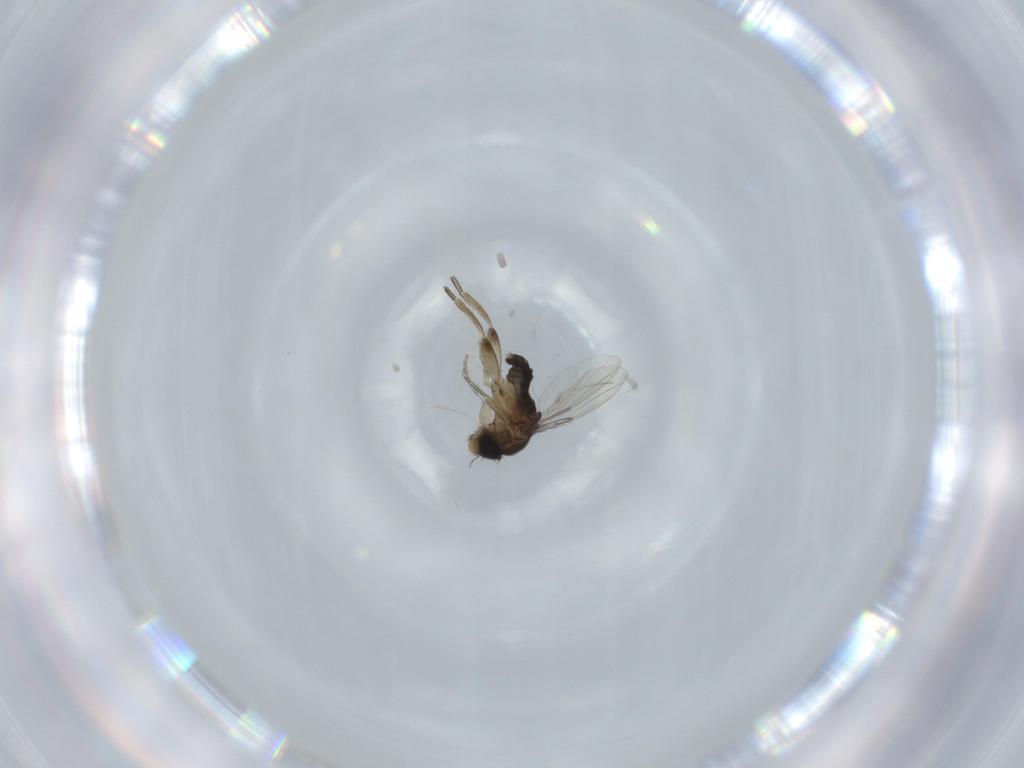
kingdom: Animalia
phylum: Arthropoda
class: Insecta
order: Diptera
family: Phoridae
